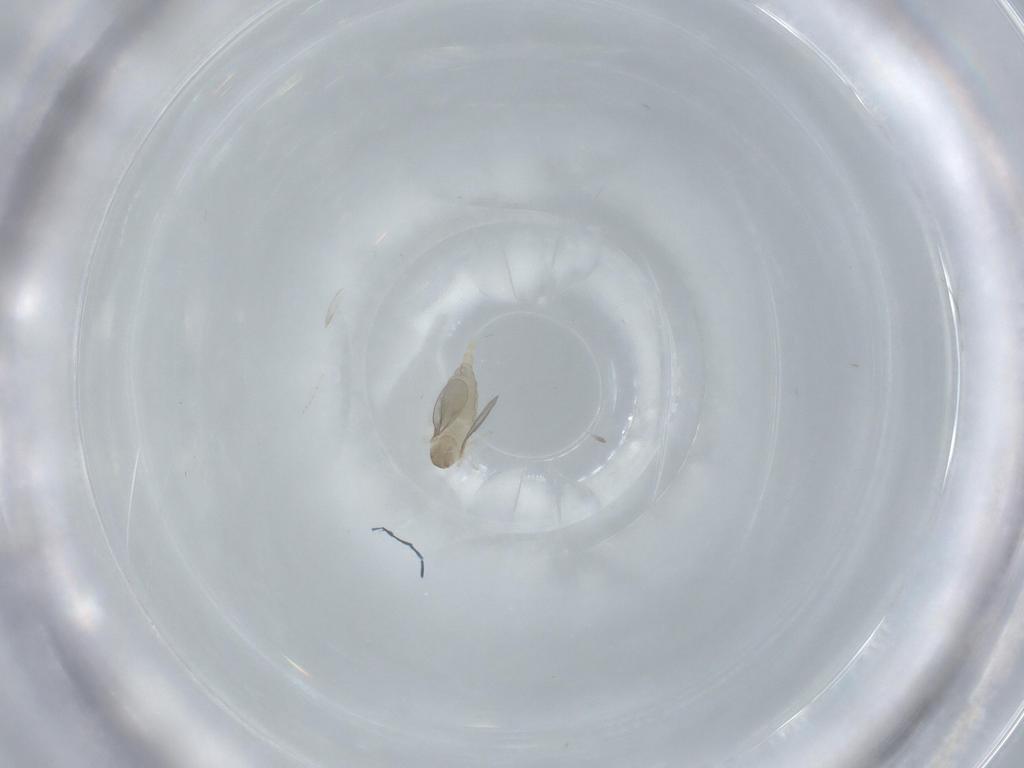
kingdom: Animalia
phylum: Arthropoda
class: Insecta
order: Diptera
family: Cecidomyiidae
